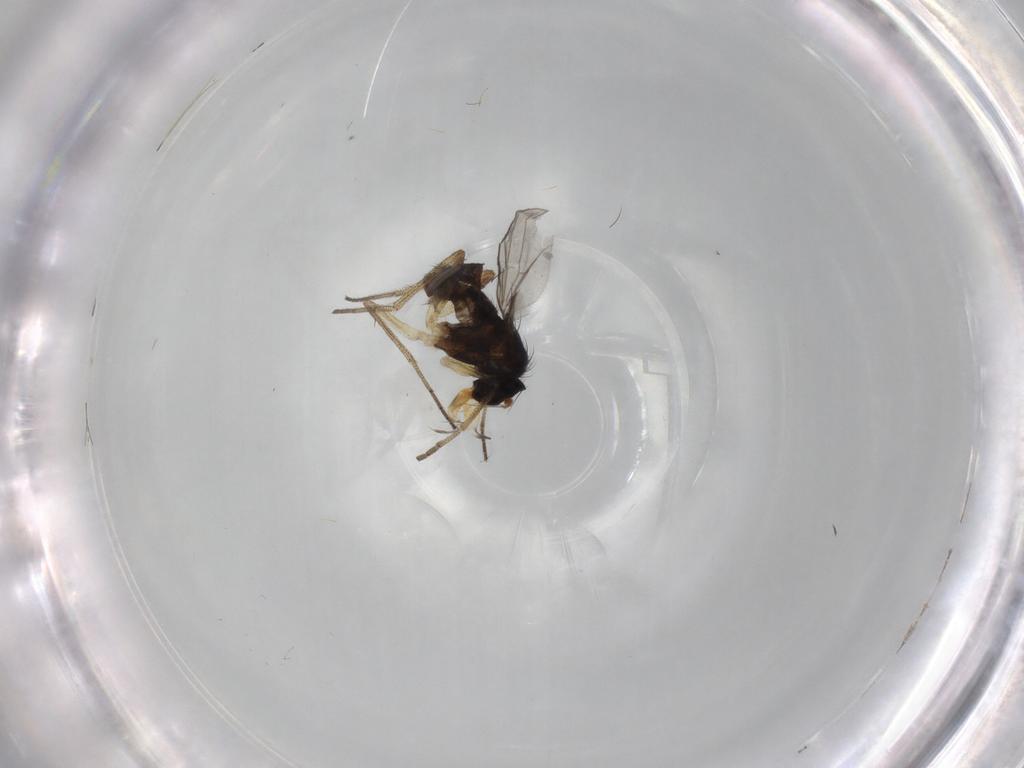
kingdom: Animalia
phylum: Arthropoda
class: Insecta
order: Diptera
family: Dolichopodidae
